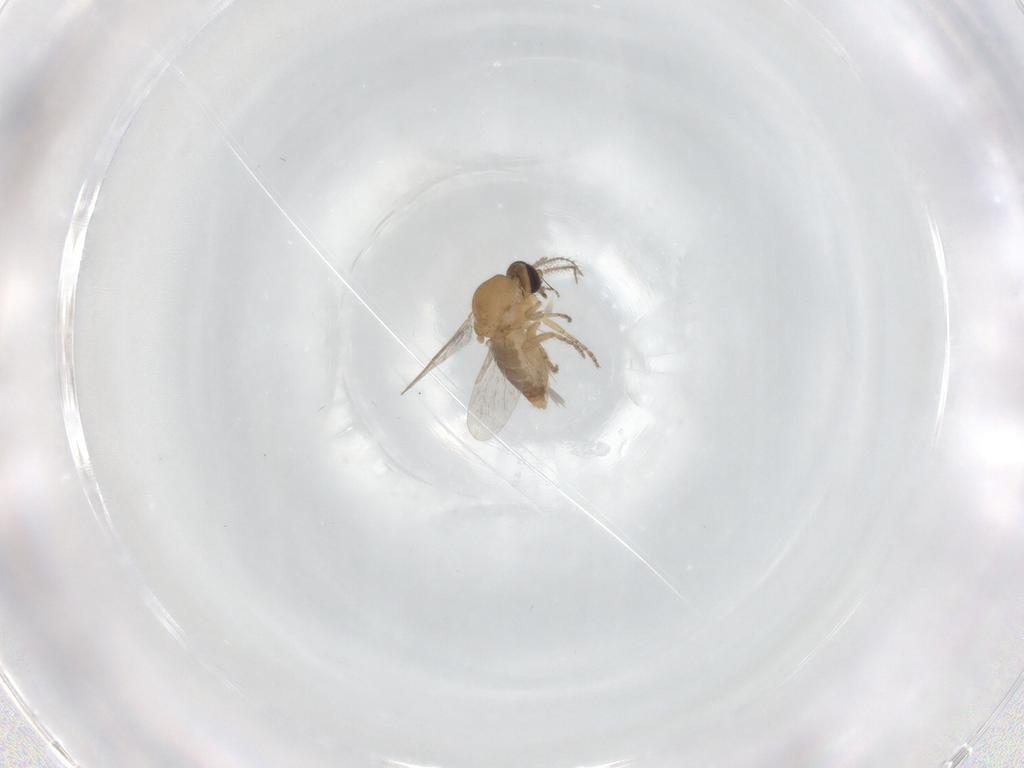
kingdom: Animalia
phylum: Arthropoda
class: Insecta
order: Diptera
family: Ceratopogonidae
